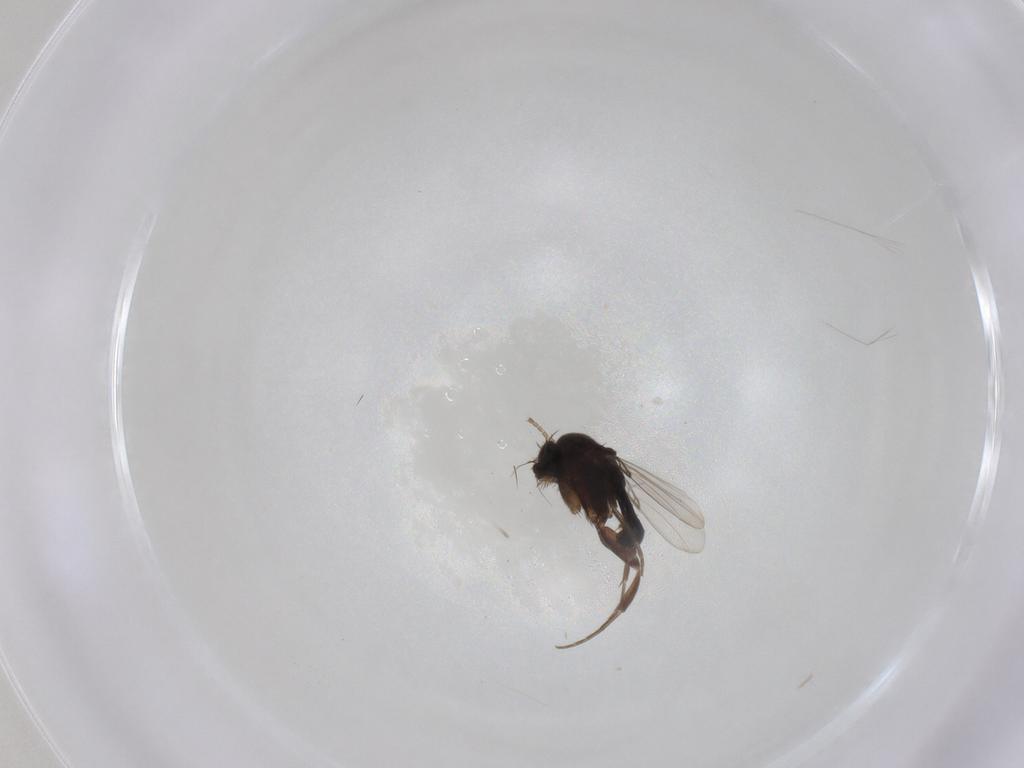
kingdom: Animalia
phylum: Arthropoda
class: Insecta
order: Diptera
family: Phoridae
